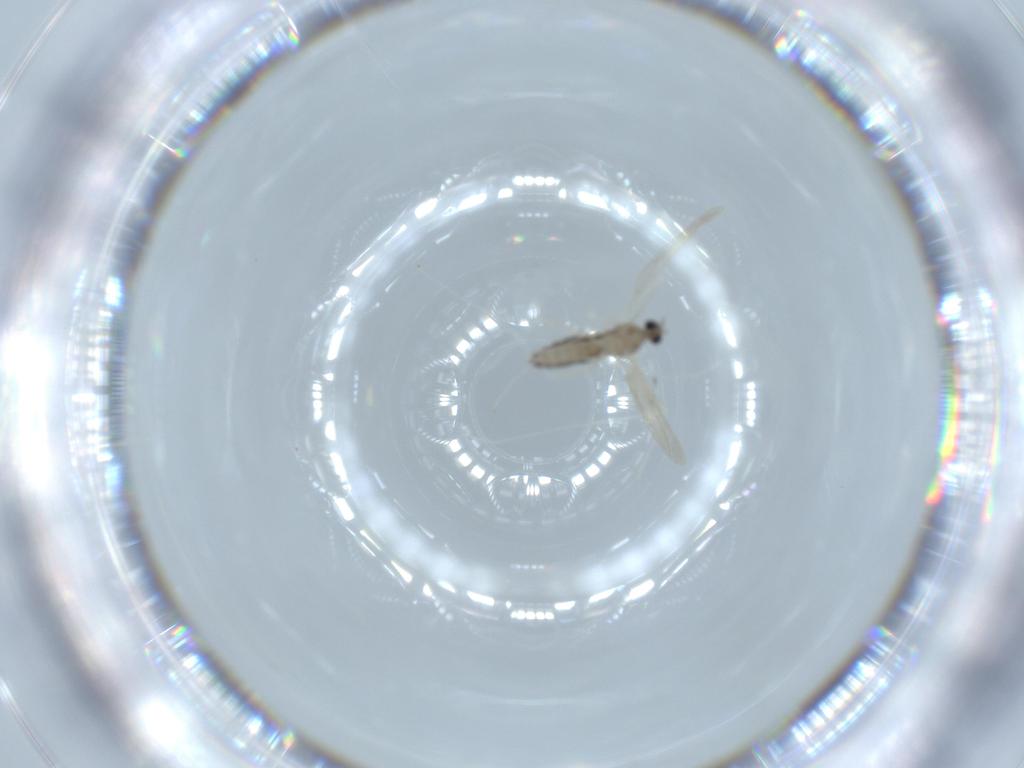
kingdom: Animalia
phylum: Arthropoda
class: Insecta
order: Diptera
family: Cecidomyiidae
